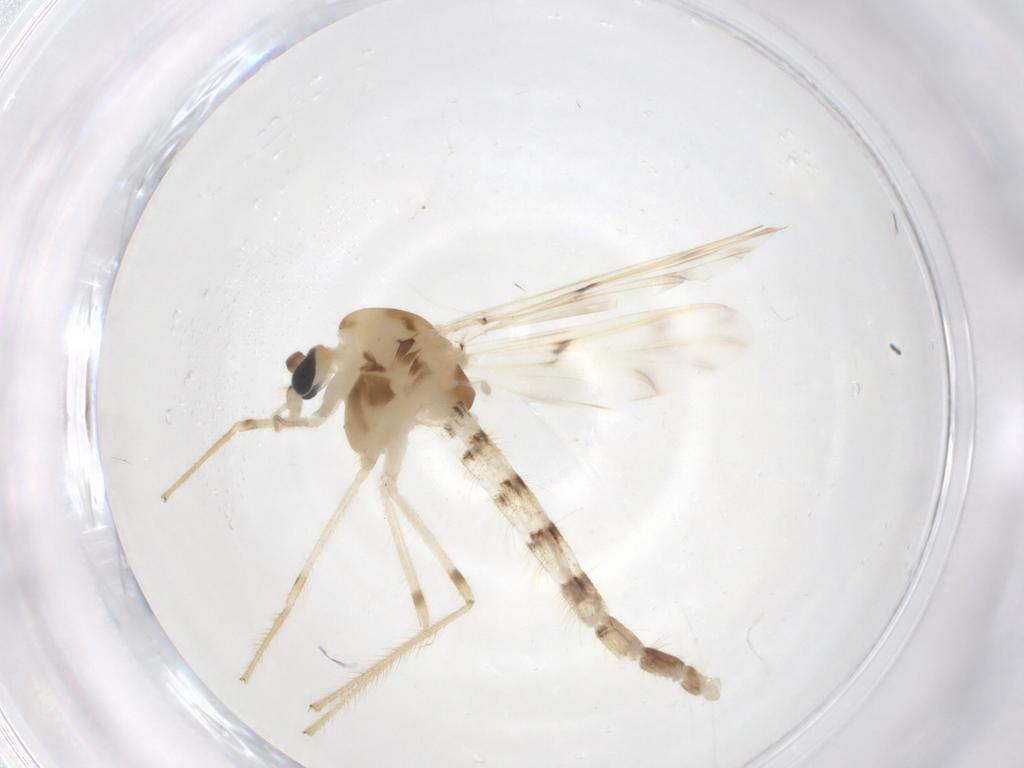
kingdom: Animalia
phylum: Arthropoda
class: Insecta
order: Diptera
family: Chironomidae
